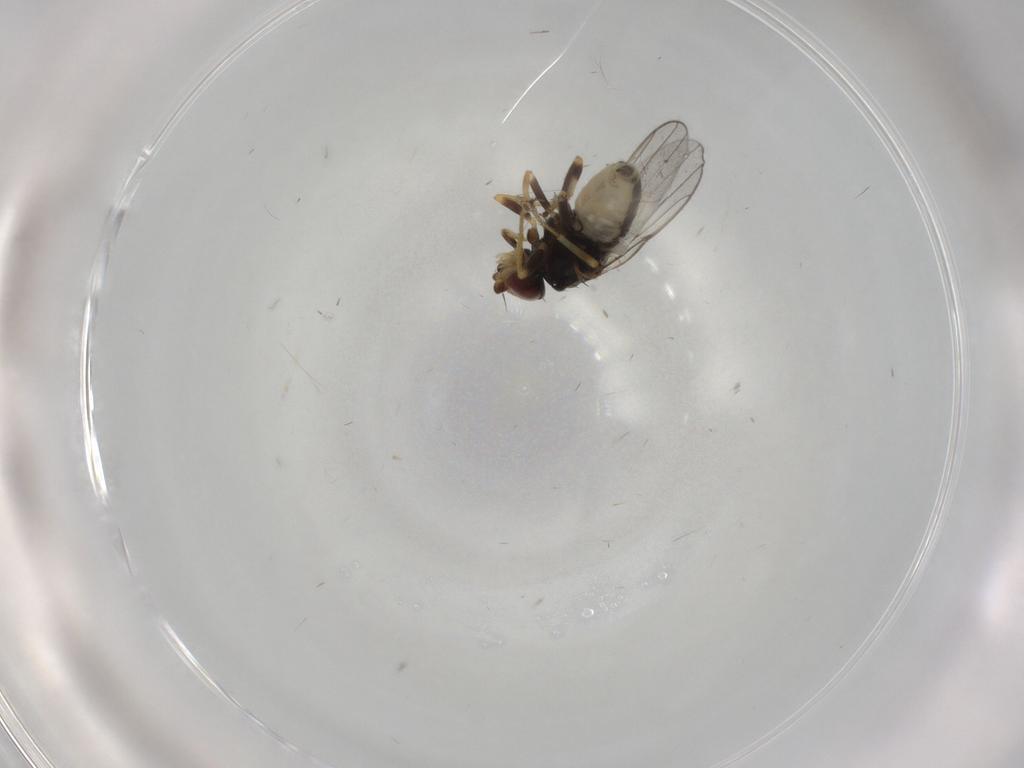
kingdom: Animalia
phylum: Arthropoda
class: Insecta
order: Diptera
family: Chloropidae
